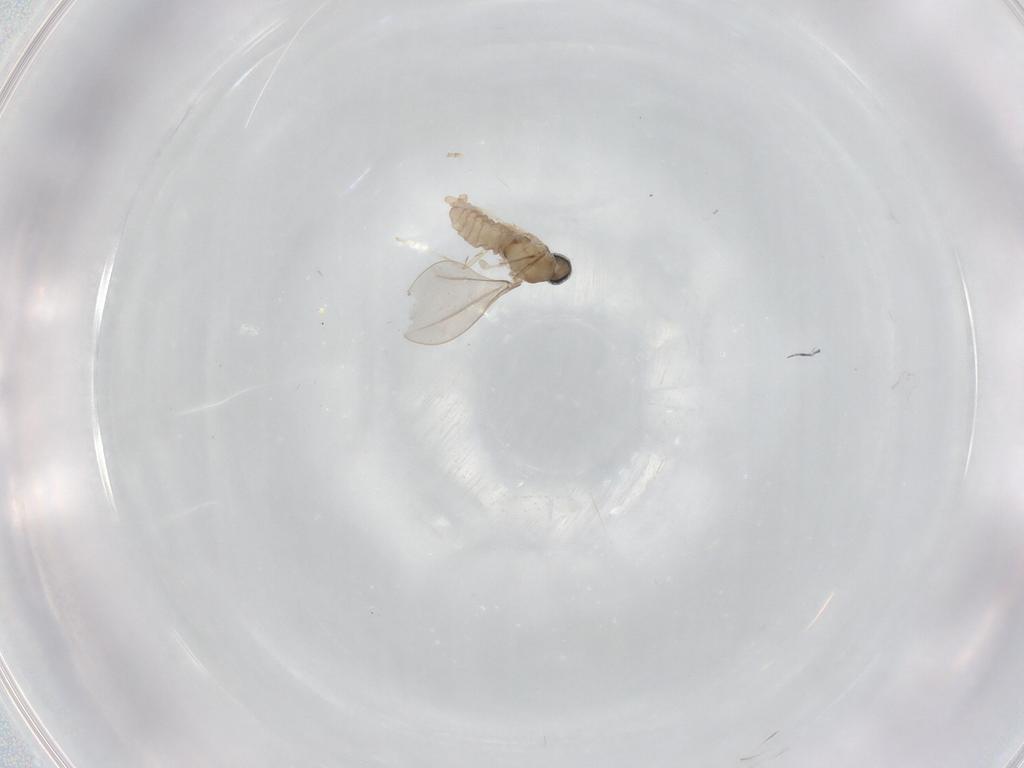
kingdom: Animalia
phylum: Arthropoda
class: Insecta
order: Diptera
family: Cecidomyiidae
